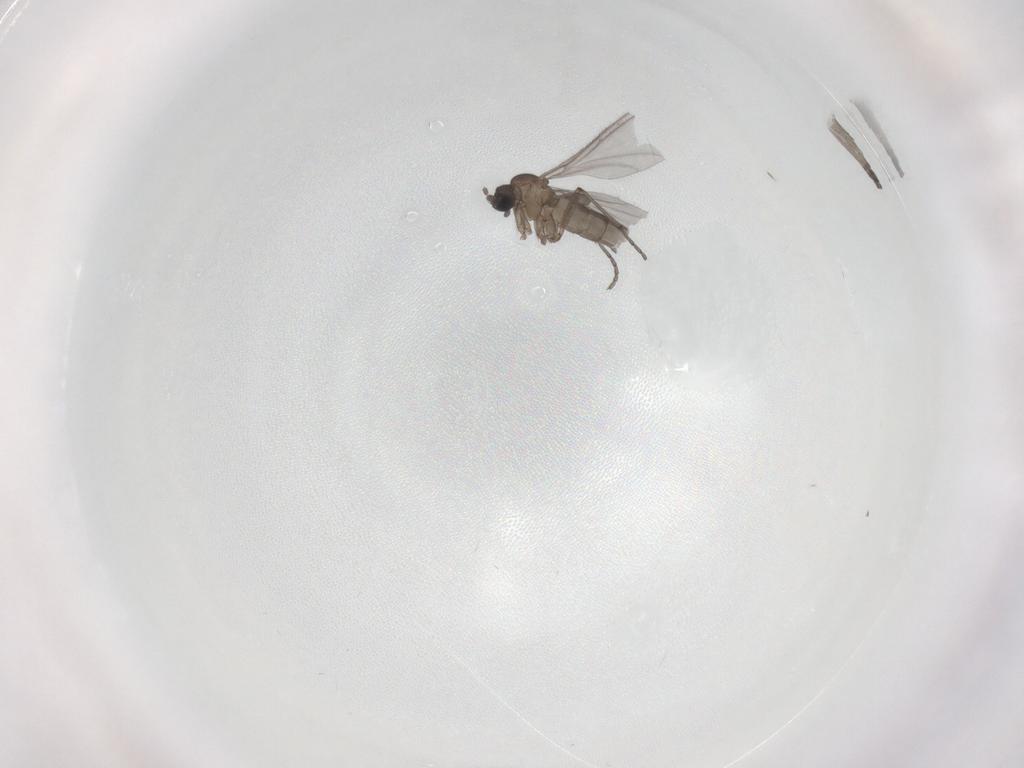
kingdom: Animalia
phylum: Arthropoda
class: Insecta
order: Diptera
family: Sciaridae
